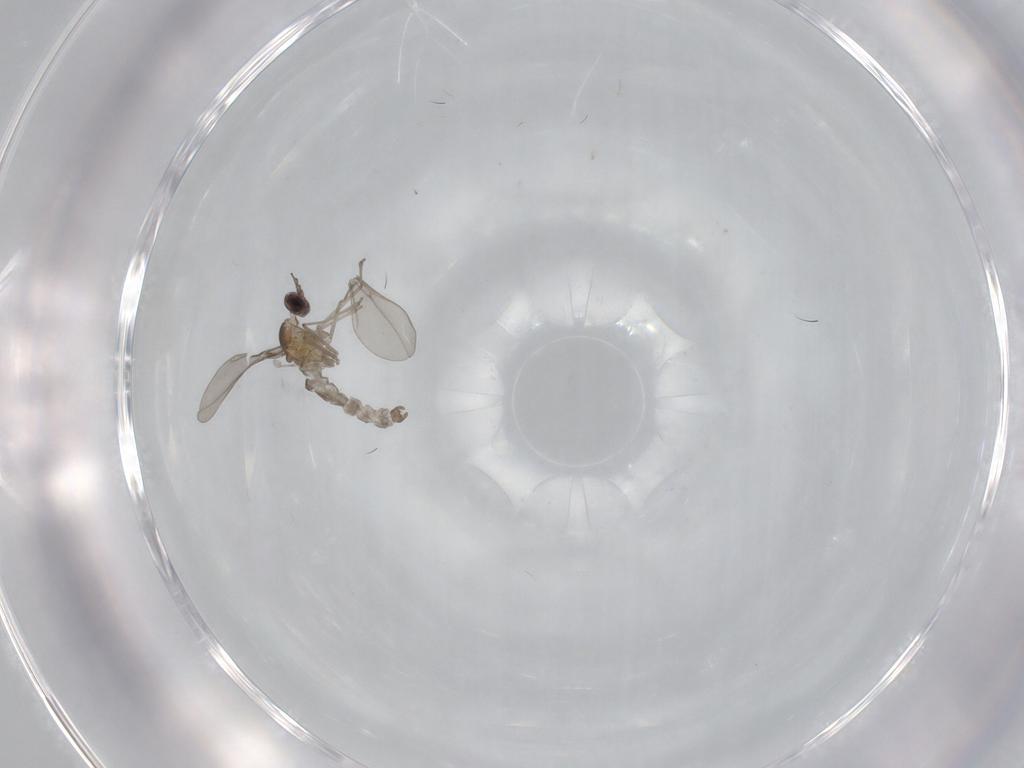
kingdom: Animalia
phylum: Arthropoda
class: Insecta
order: Diptera
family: Phoridae
